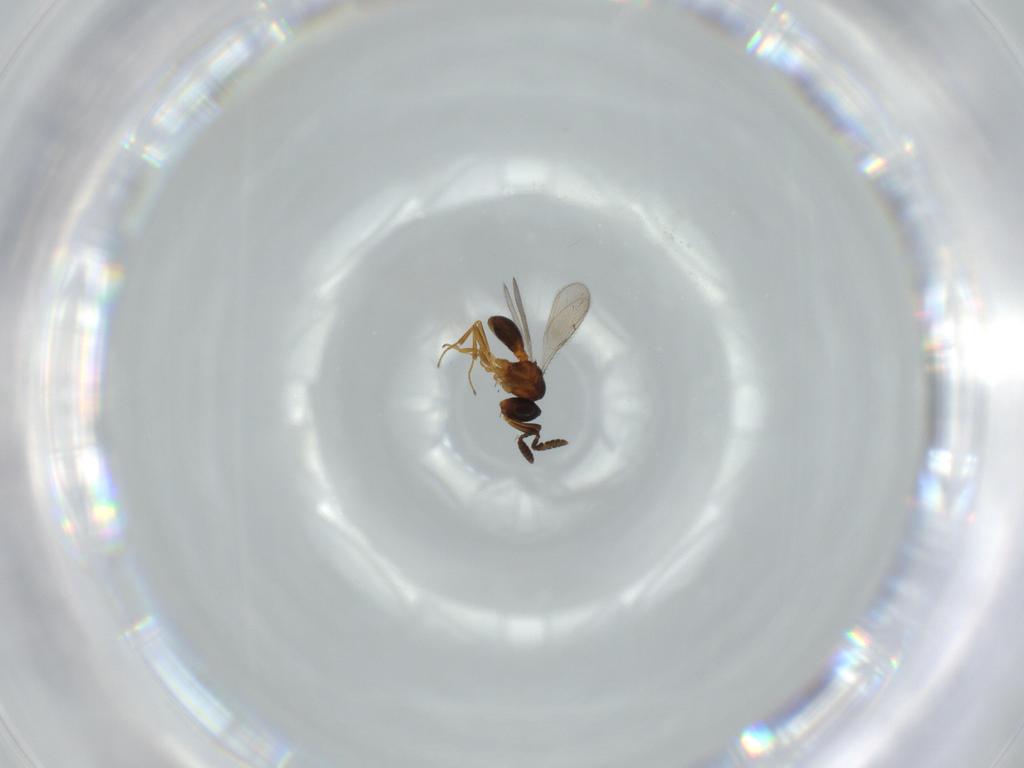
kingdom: Animalia
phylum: Arthropoda
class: Insecta
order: Hymenoptera
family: Scelionidae
